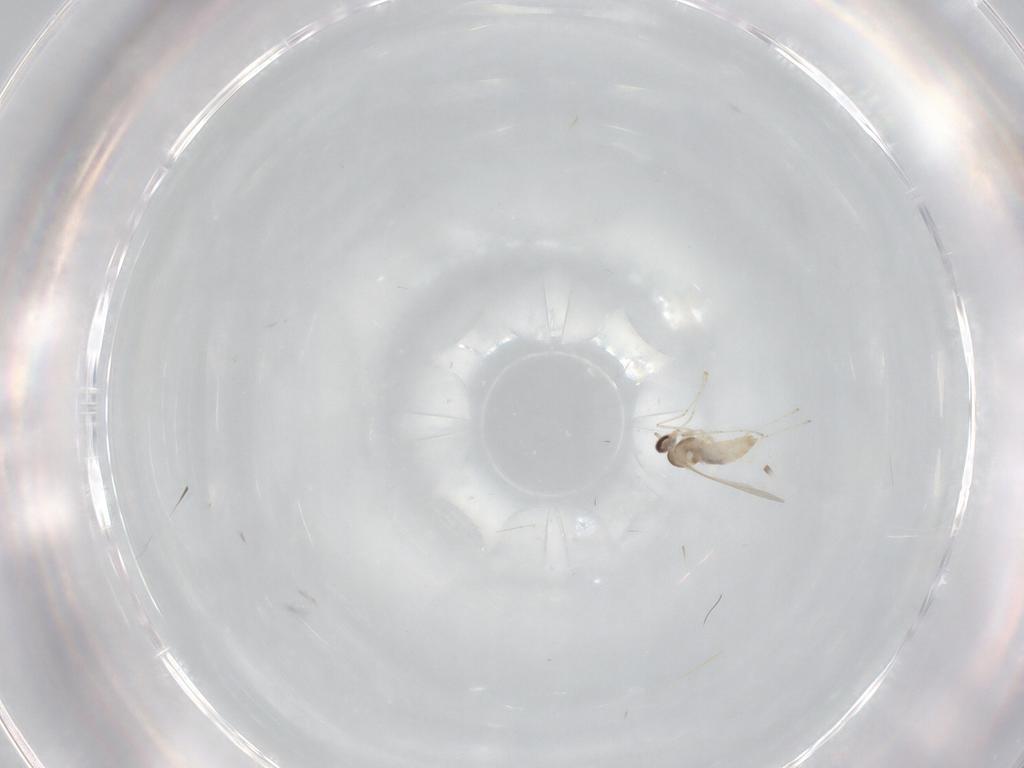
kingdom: Animalia
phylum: Arthropoda
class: Insecta
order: Diptera
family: Cecidomyiidae
